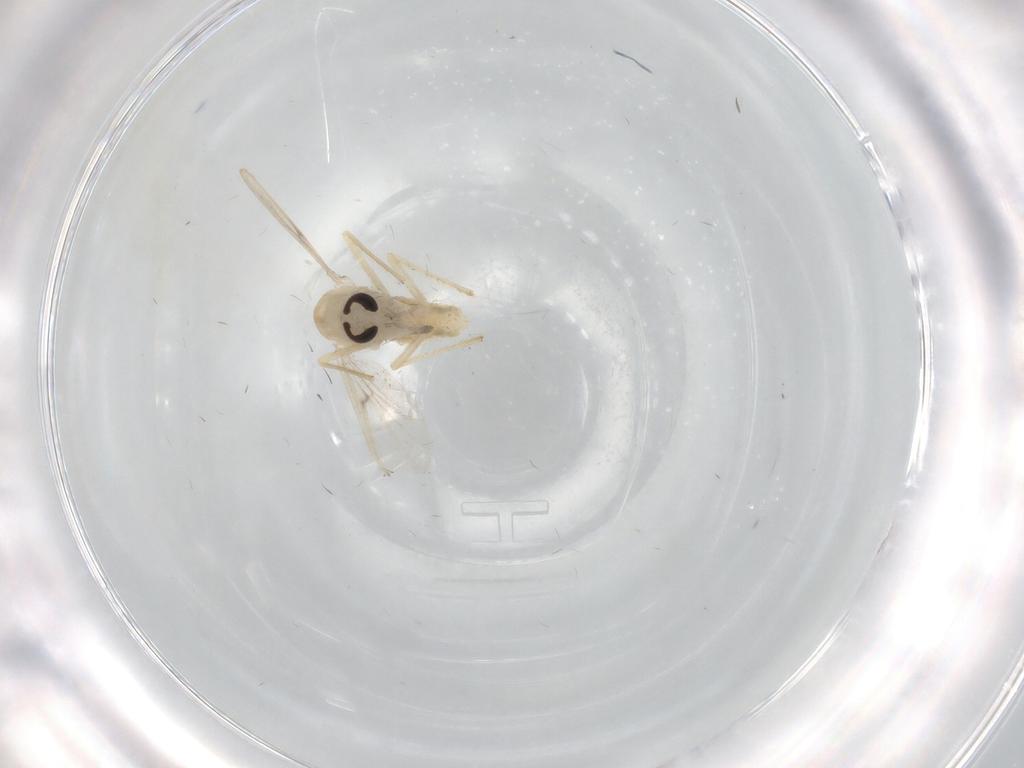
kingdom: Animalia
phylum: Arthropoda
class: Insecta
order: Diptera
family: Chironomidae
